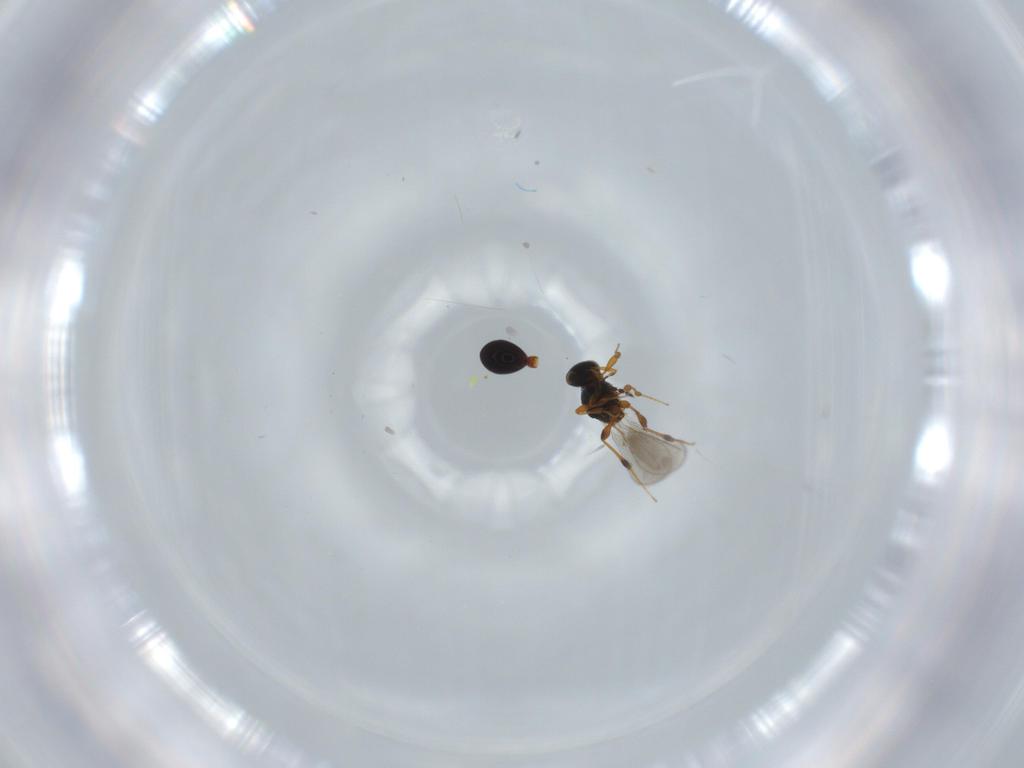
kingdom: Animalia
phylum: Arthropoda
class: Insecta
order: Hymenoptera
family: Platygastridae
